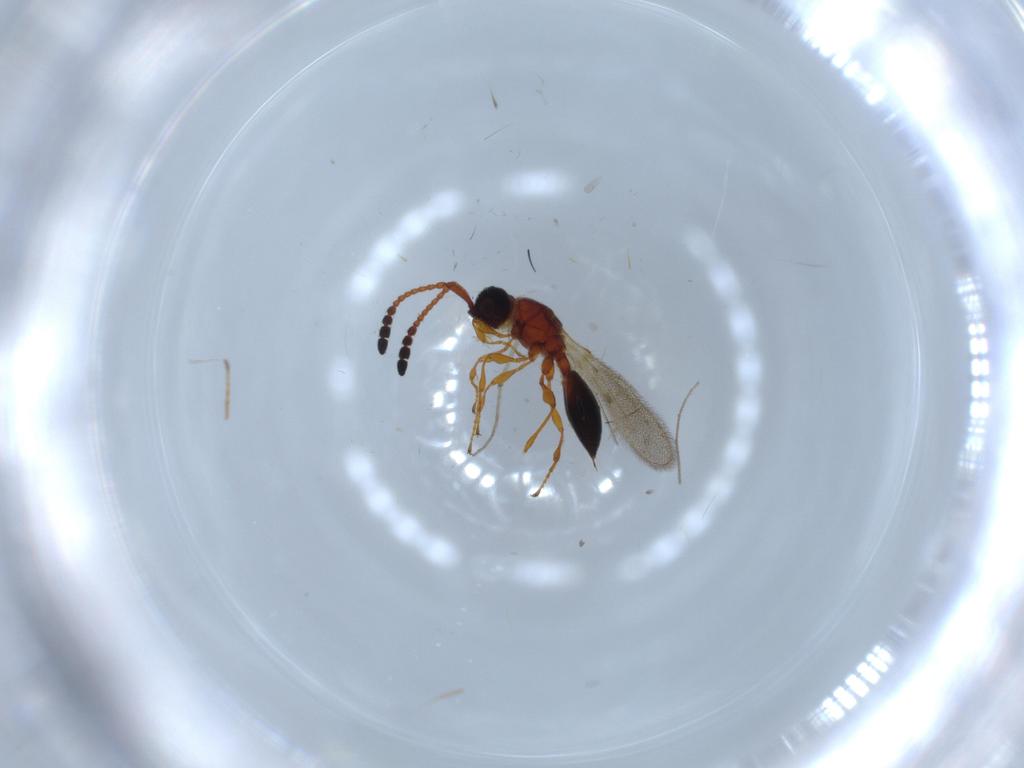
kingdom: Animalia
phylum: Arthropoda
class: Insecta
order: Hymenoptera
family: Diapriidae
